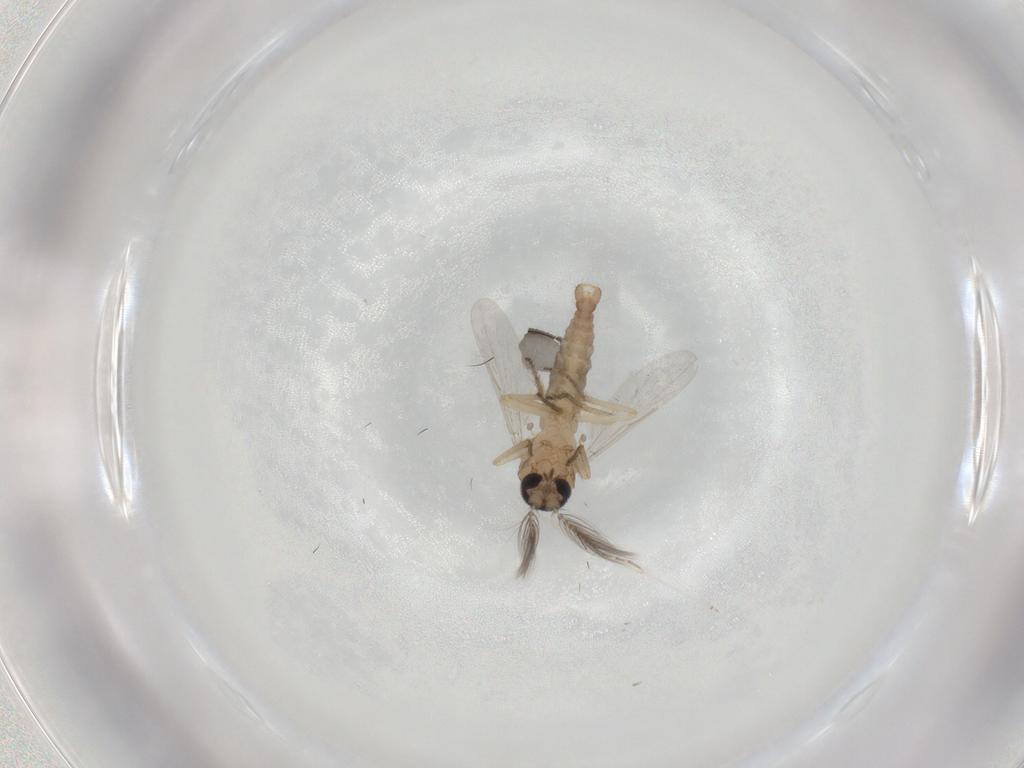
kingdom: Animalia
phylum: Arthropoda
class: Insecta
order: Diptera
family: Ceratopogonidae
